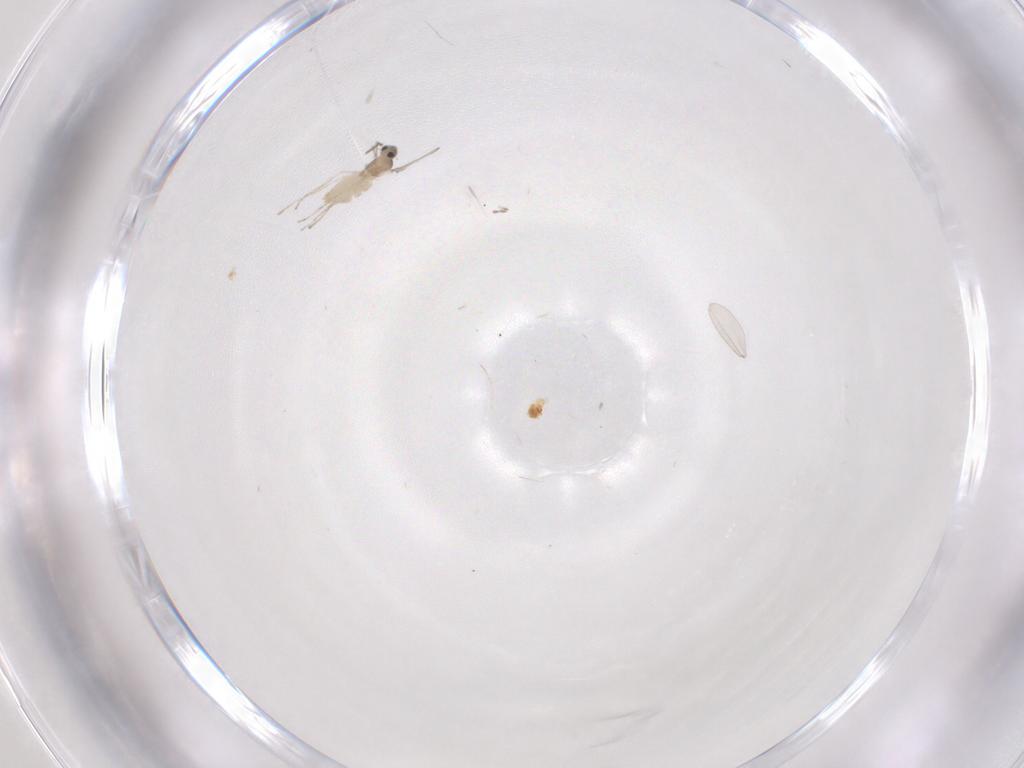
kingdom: Animalia
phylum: Arthropoda
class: Insecta
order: Diptera
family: Cecidomyiidae
